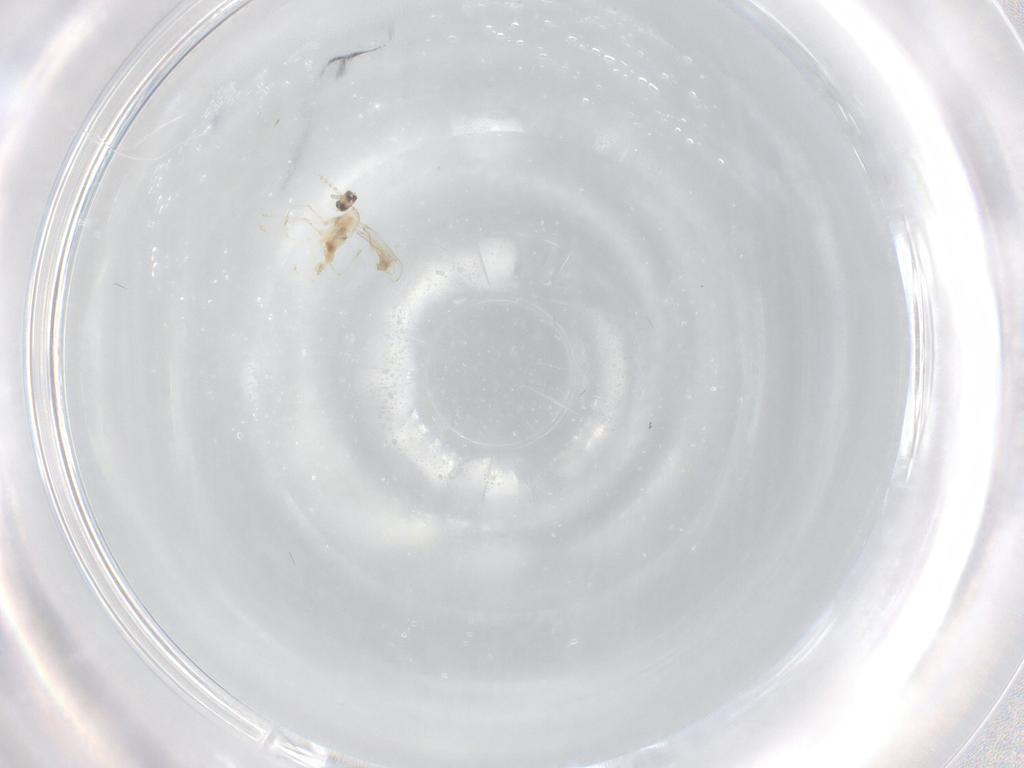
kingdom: Animalia
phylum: Arthropoda
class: Insecta
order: Diptera
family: Cecidomyiidae
